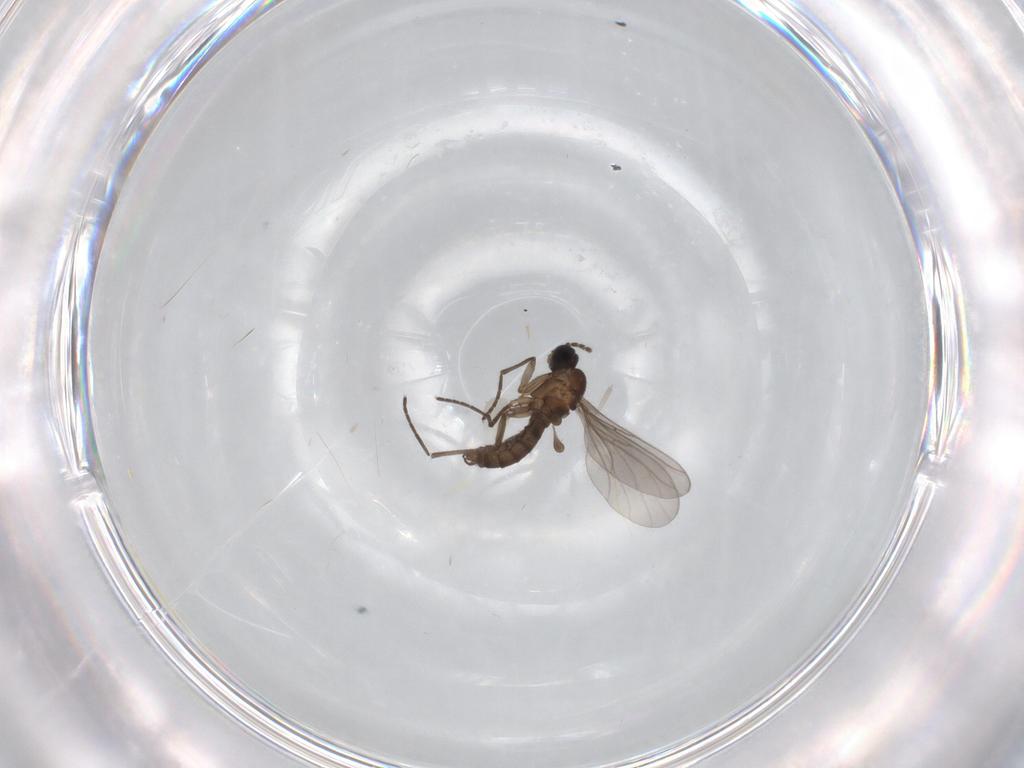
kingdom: Animalia
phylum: Arthropoda
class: Insecta
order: Diptera
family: Cecidomyiidae
